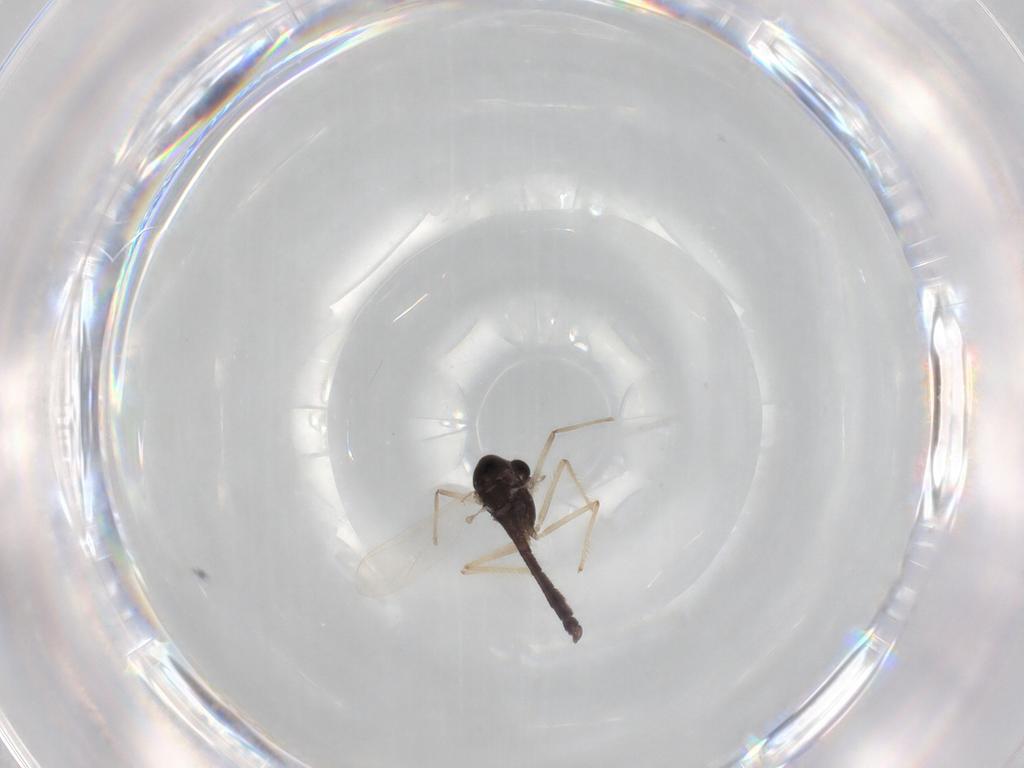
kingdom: Animalia
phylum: Arthropoda
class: Insecta
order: Diptera
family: Chironomidae
